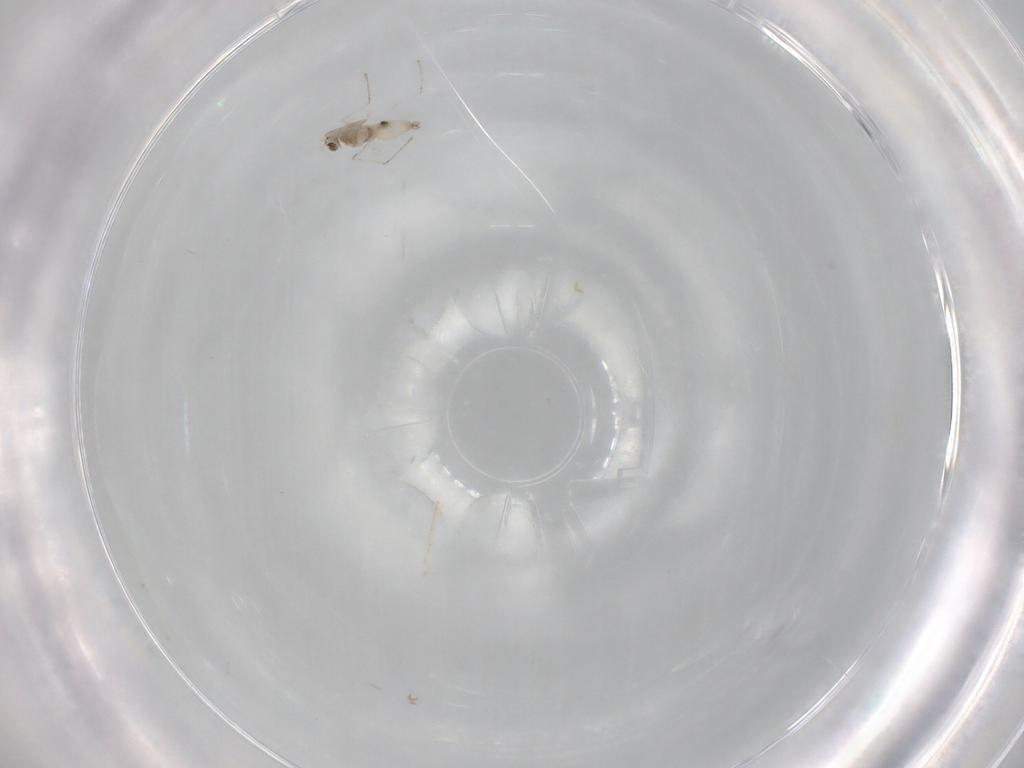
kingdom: Animalia
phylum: Arthropoda
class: Insecta
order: Diptera
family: Cecidomyiidae
